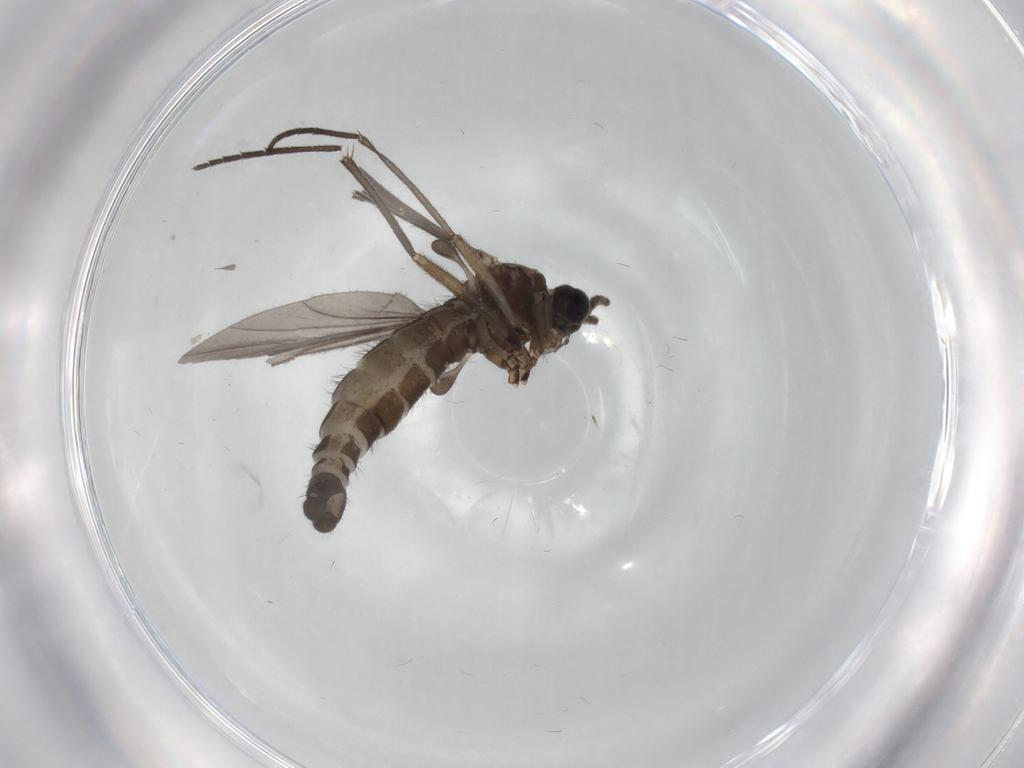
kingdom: Animalia
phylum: Arthropoda
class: Insecta
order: Diptera
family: Sciaridae
